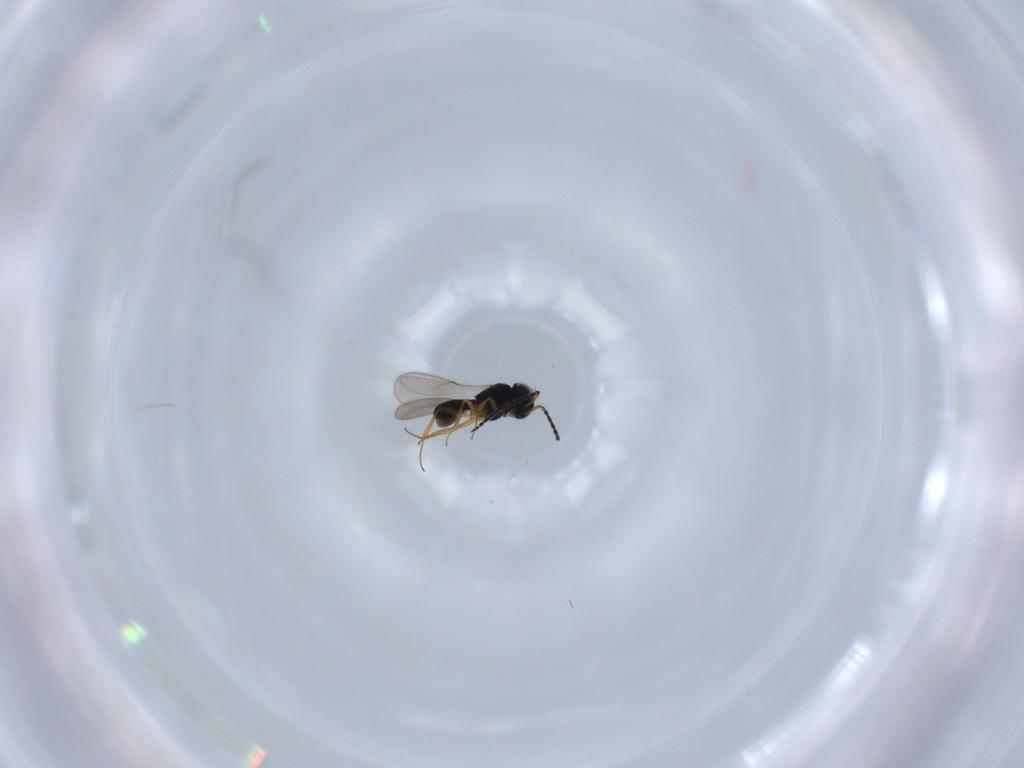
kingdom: Animalia
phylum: Arthropoda
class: Insecta
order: Hymenoptera
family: Scelionidae
